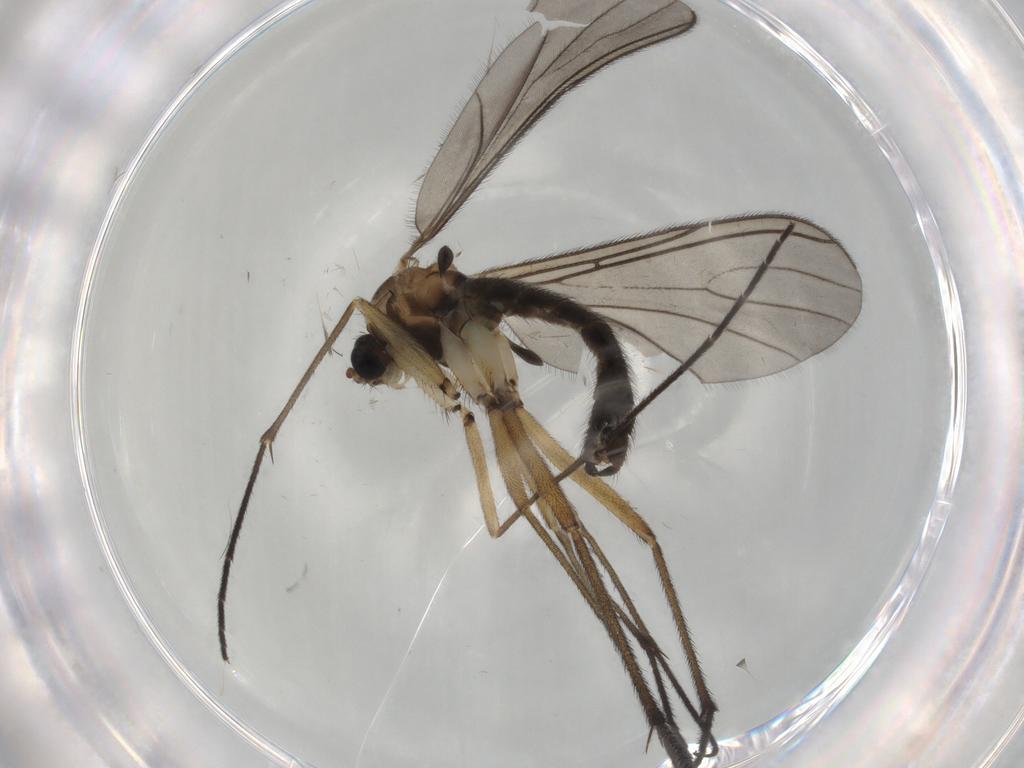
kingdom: Animalia
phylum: Arthropoda
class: Insecta
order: Diptera
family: Sciaridae
